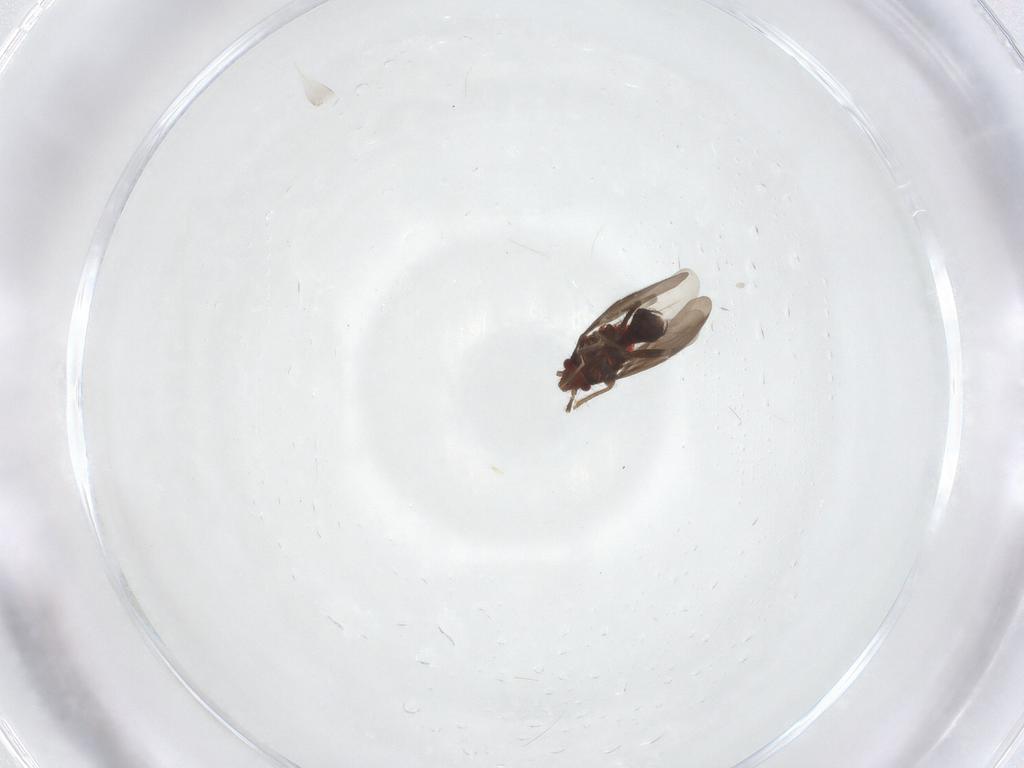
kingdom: Animalia
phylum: Arthropoda
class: Insecta
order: Hemiptera
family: Ceratocombidae
